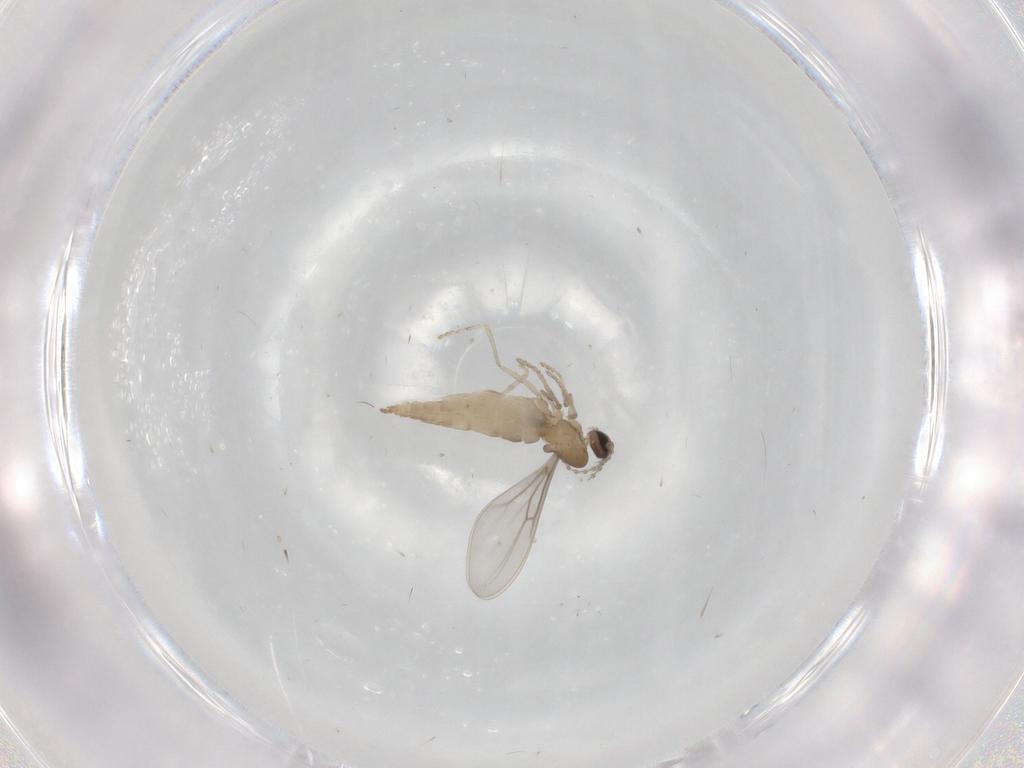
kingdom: Animalia
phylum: Arthropoda
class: Insecta
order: Diptera
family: Cecidomyiidae
